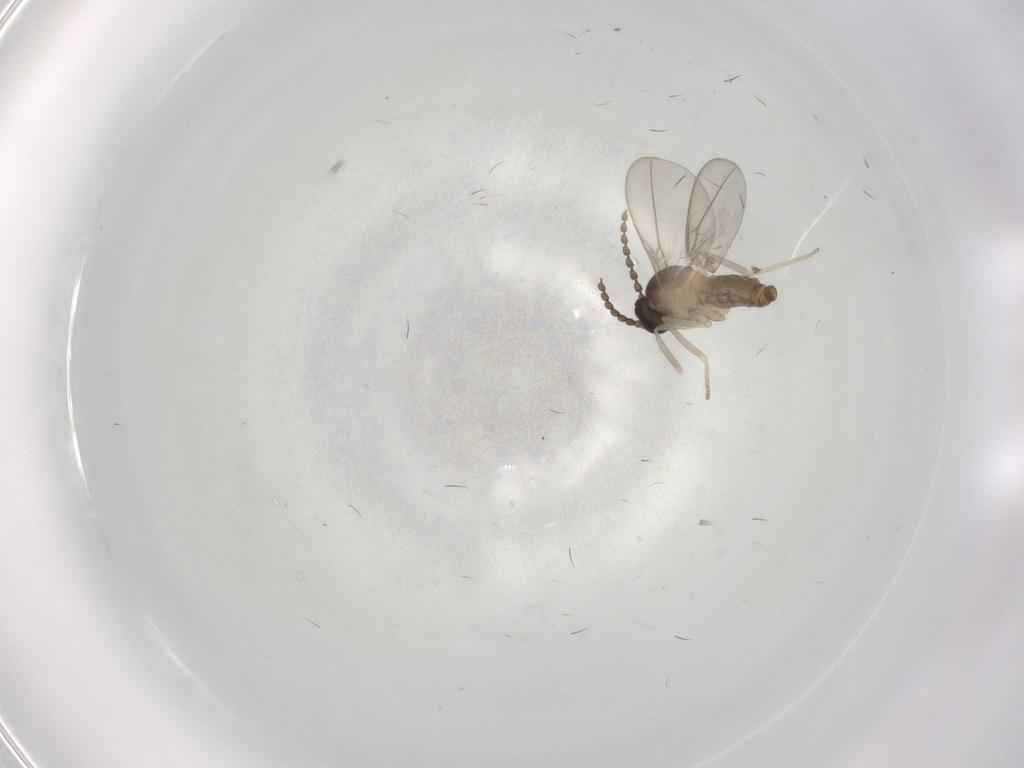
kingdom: Animalia
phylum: Arthropoda
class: Insecta
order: Diptera
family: Cecidomyiidae
